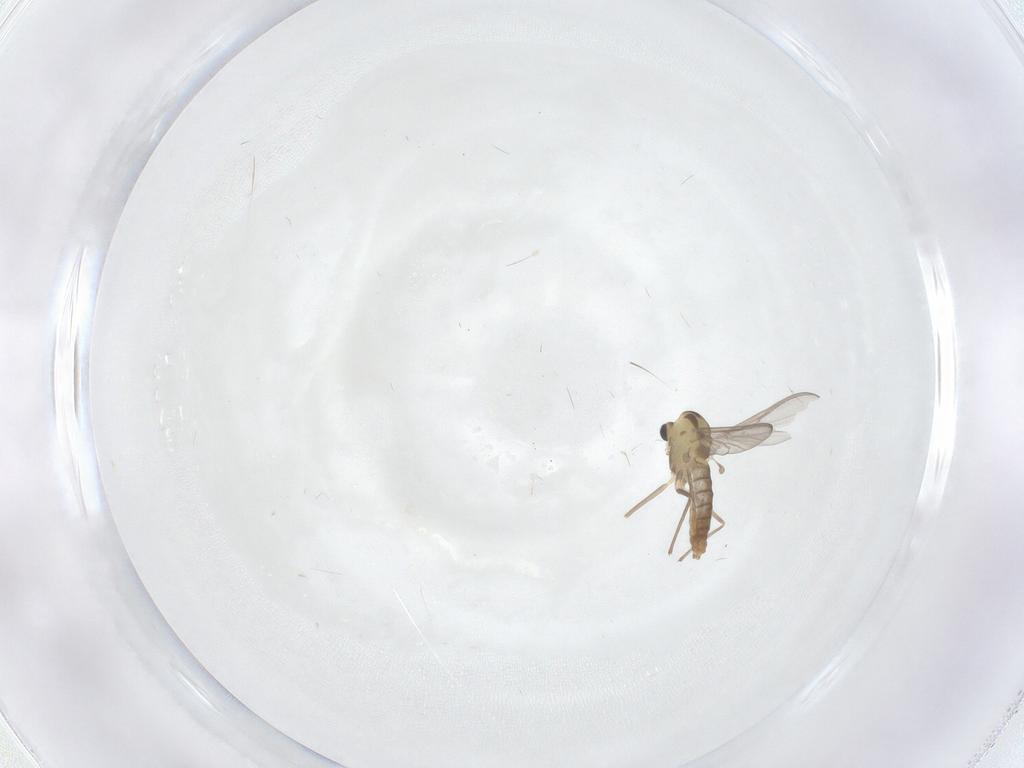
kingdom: Animalia
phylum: Arthropoda
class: Insecta
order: Diptera
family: Chironomidae
